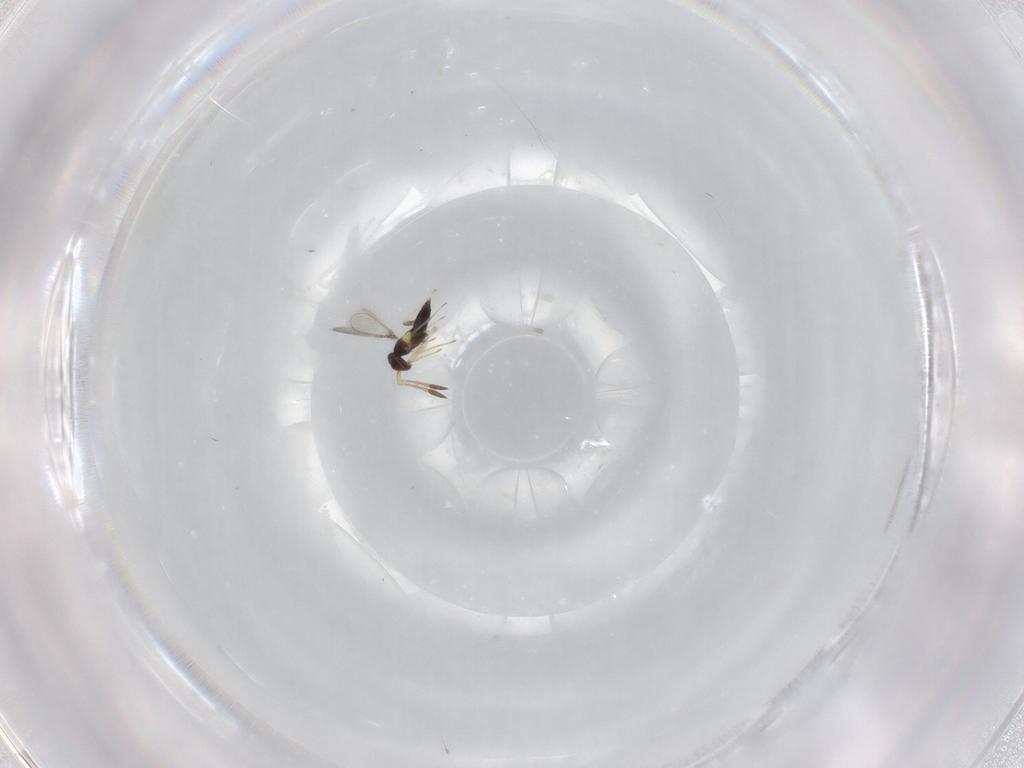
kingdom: Animalia
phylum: Arthropoda
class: Insecta
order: Hymenoptera
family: Mymaridae
